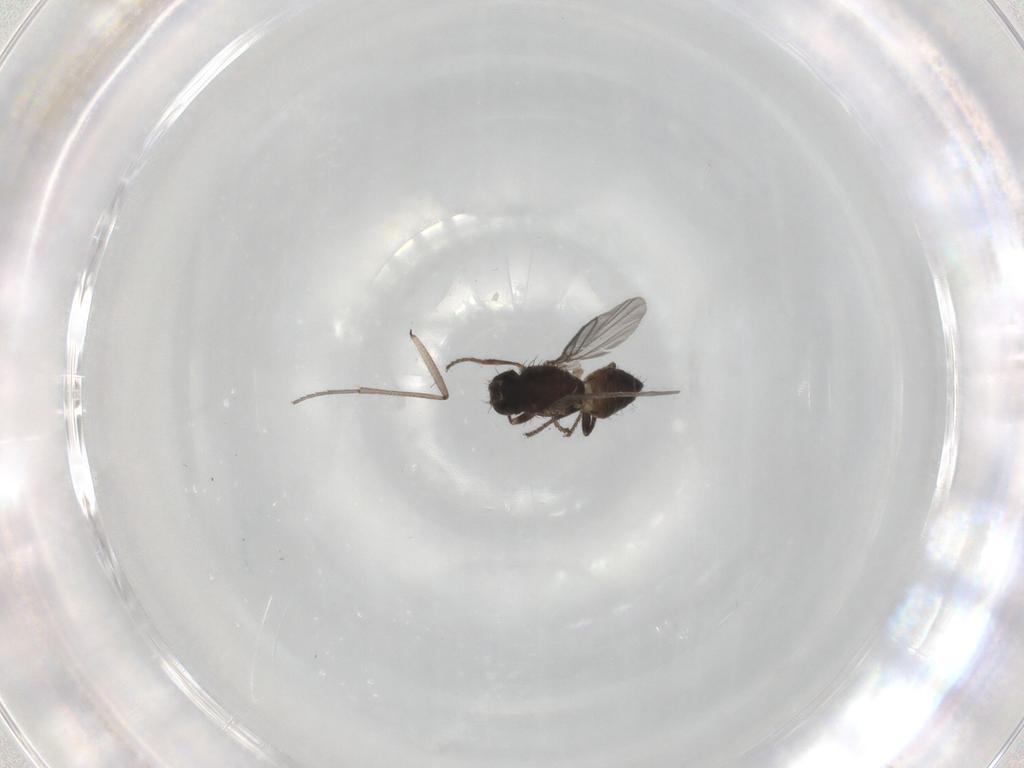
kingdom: Animalia
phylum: Arthropoda
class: Insecta
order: Diptera
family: Sciaridae
